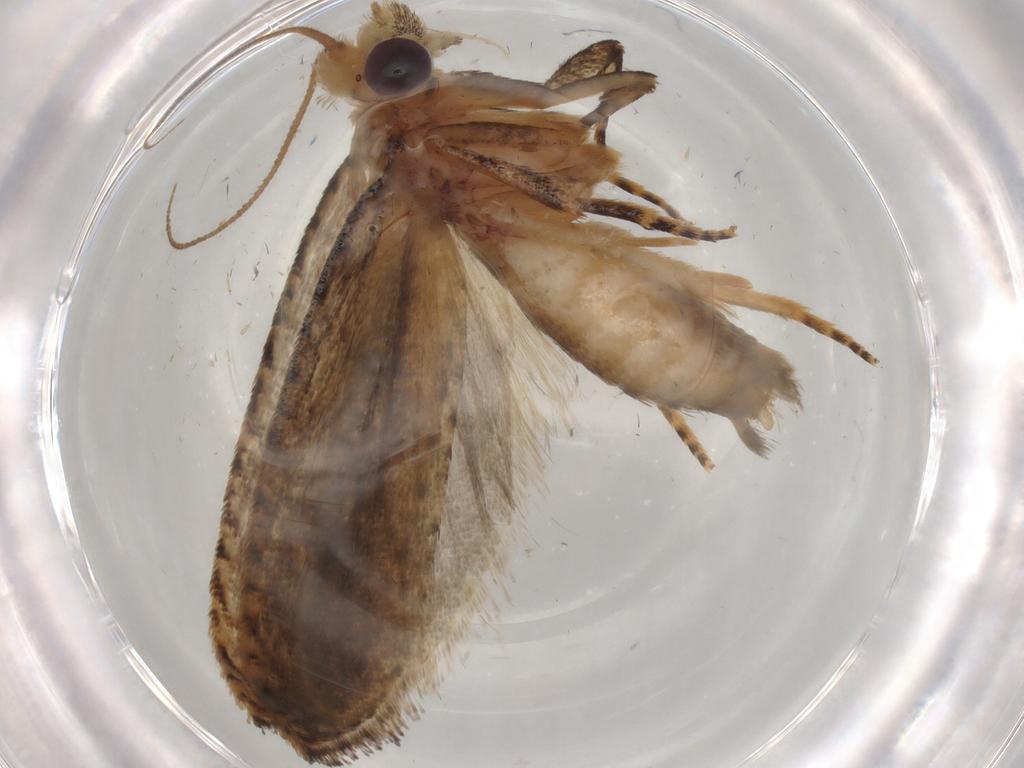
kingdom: Animalia
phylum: Arthropoda
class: Insecta
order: Lepidoptera
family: Tortricidae
